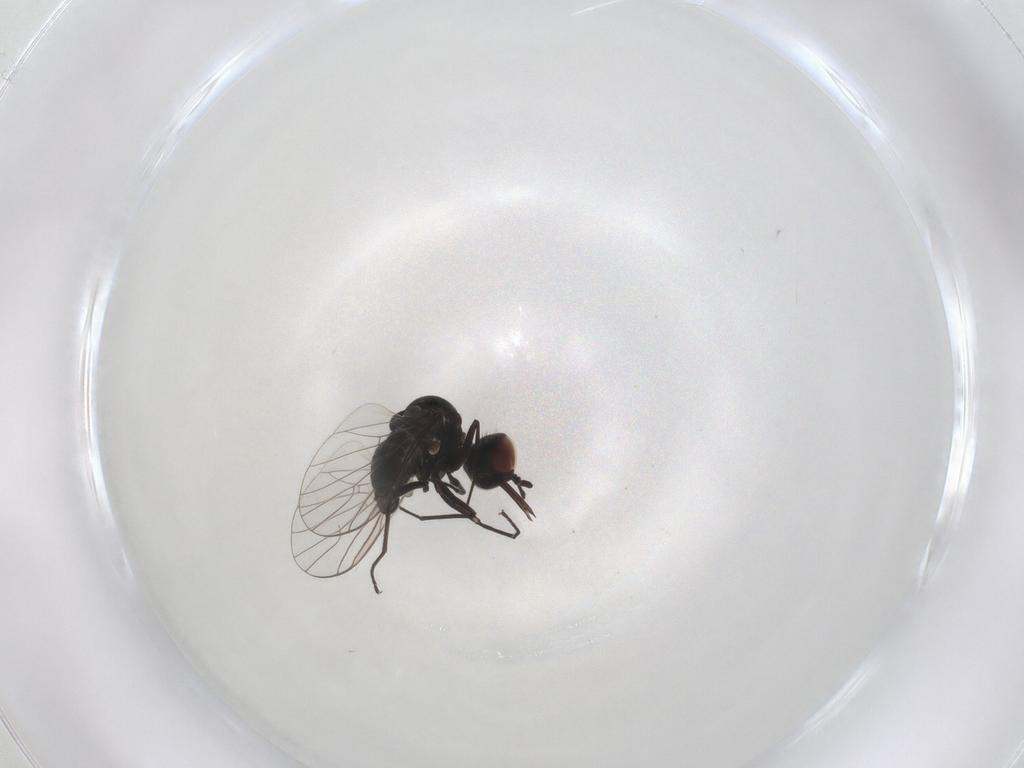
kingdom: Animalia
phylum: Arthropoda
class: Insecta
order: Diptera
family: Bombyliidae
